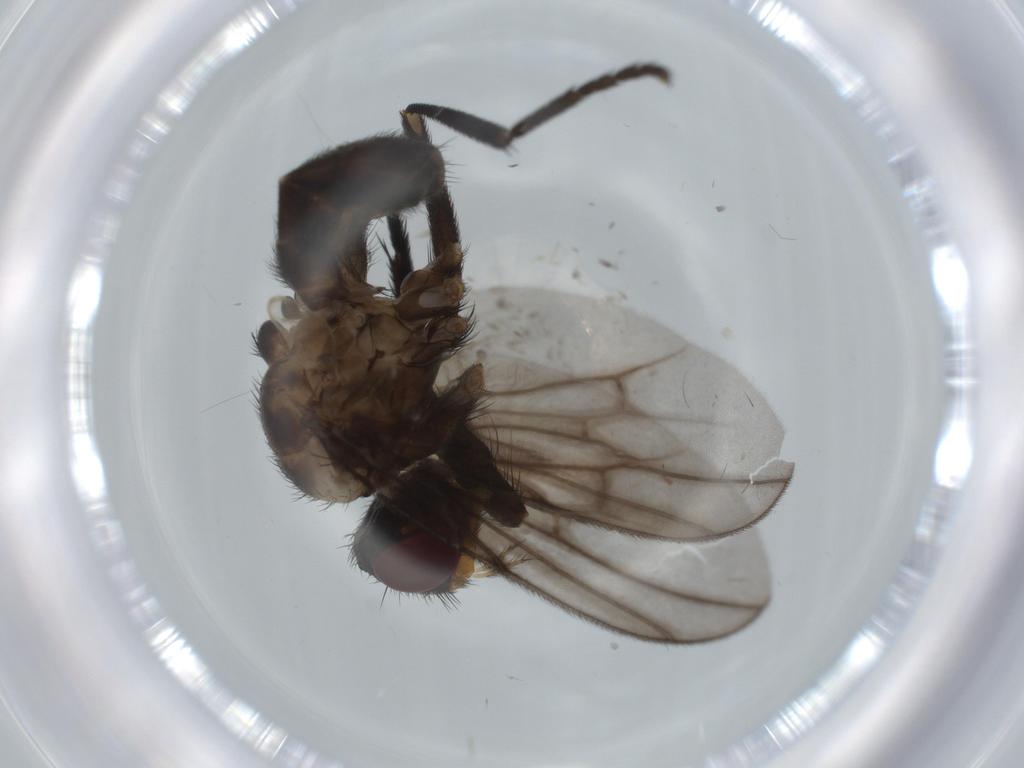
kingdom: Animalia
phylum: Arthropoda
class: Insecta
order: Diptera
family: Calliphoridae
